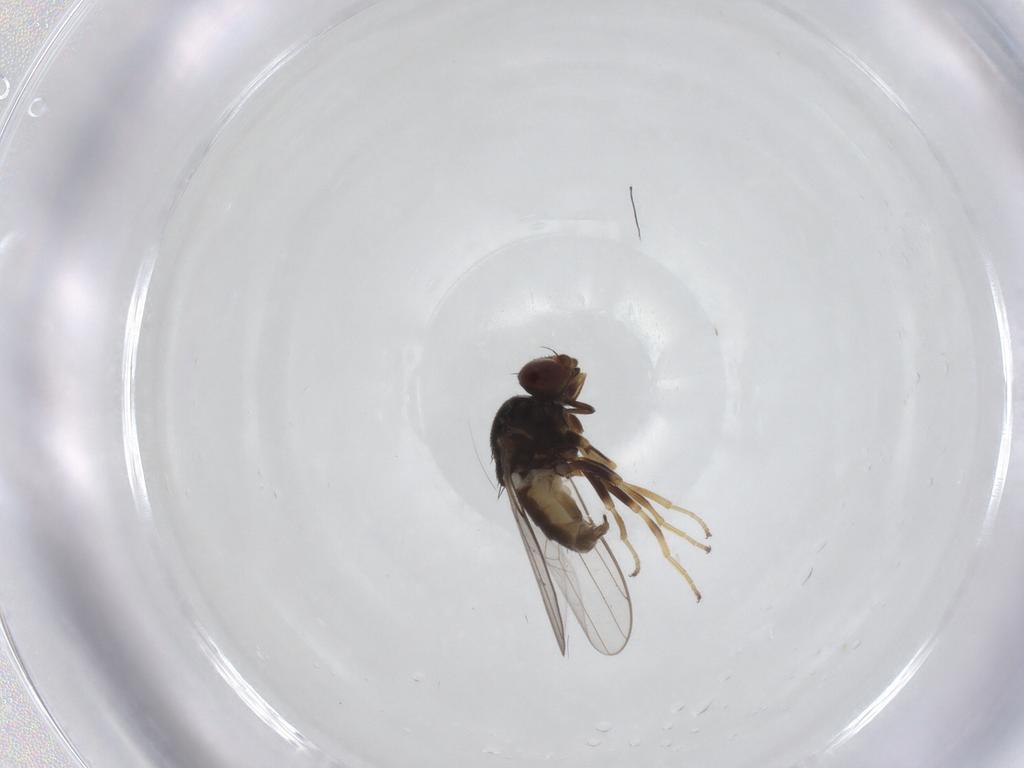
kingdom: Animalia
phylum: Arthropoda
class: Insecta
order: Diptera
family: Chloropidae
